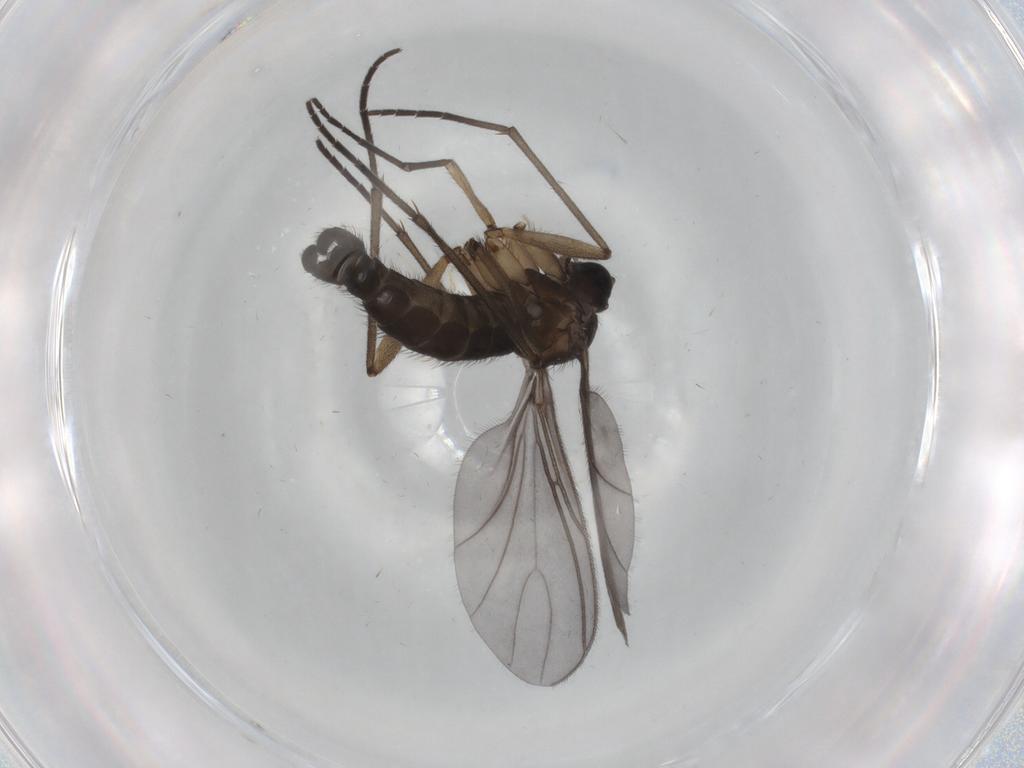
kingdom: Animalia
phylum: Arthropoda
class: Insecta
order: Diptera
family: Sciaridae
